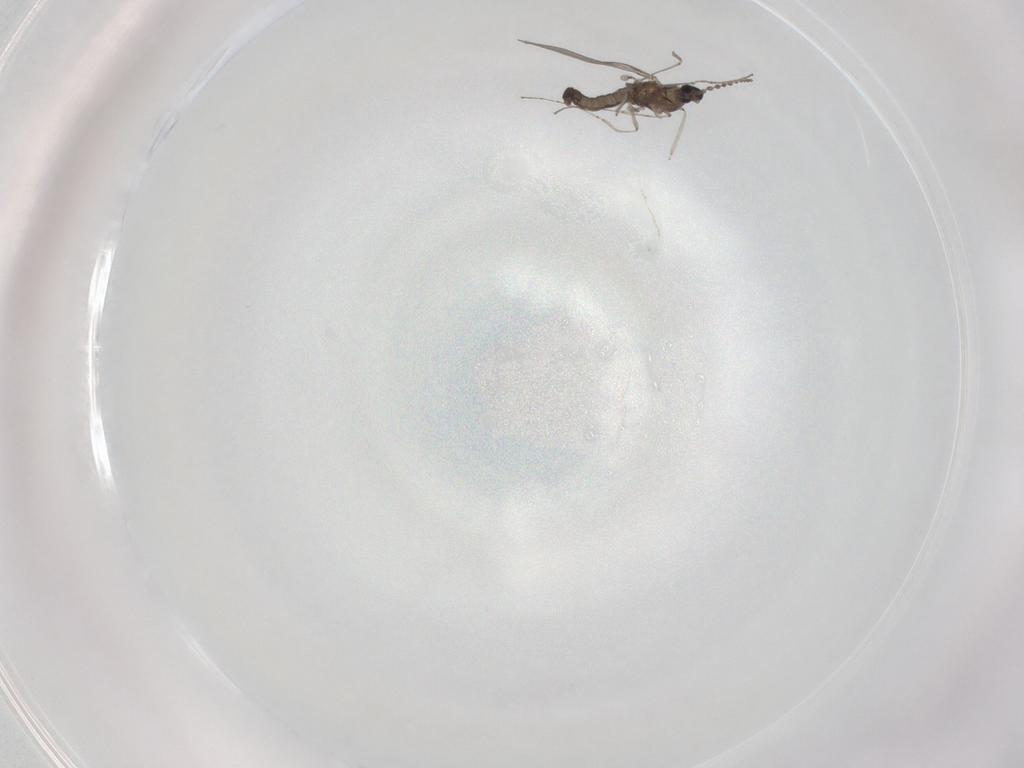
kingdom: Animalia
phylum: Arthropoda
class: Insecta
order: Diptera
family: Cecidomyiidae
